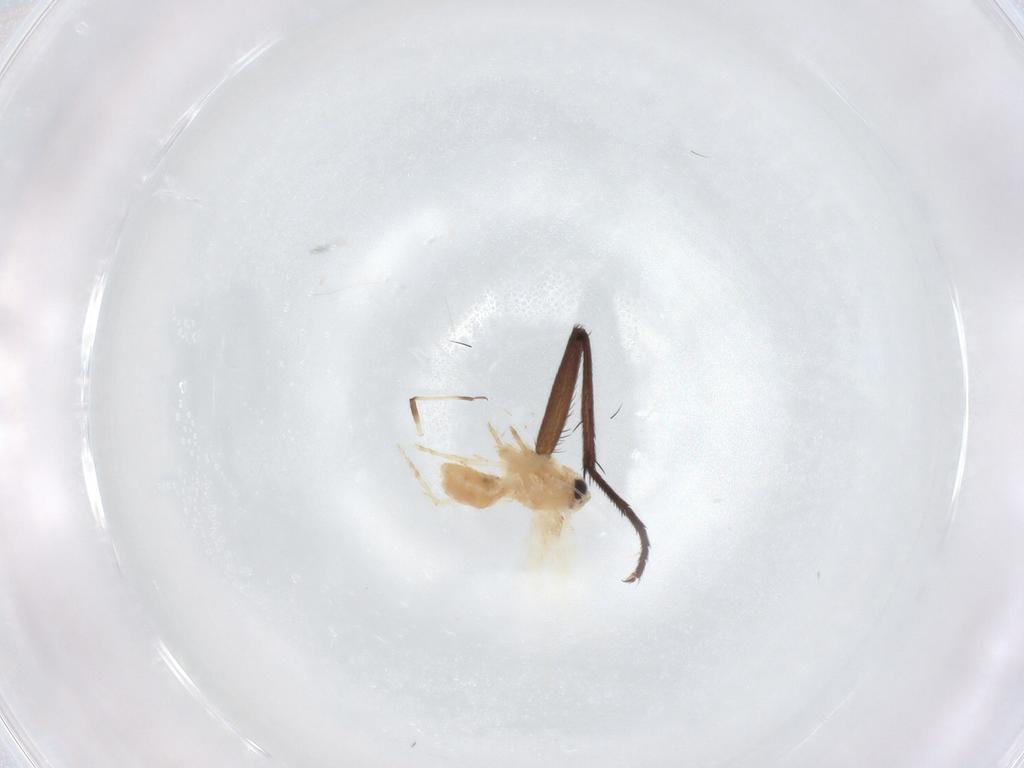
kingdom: Animalia
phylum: Arthropoda
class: Insecta
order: Lepidoptera
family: Nepticulidae
